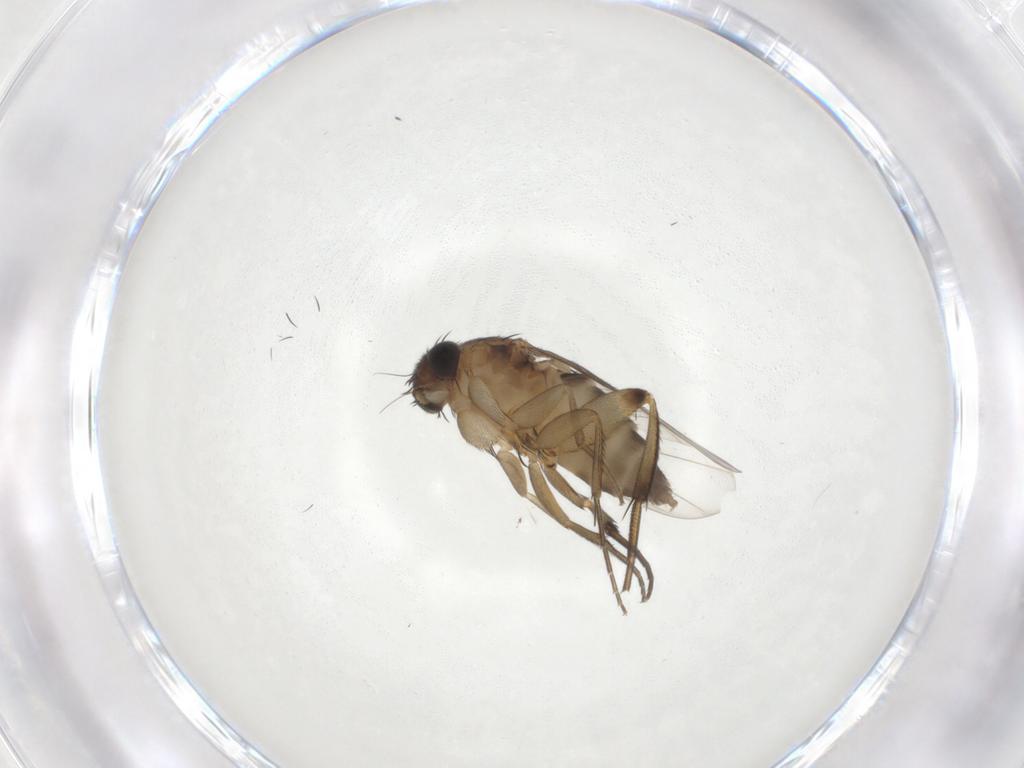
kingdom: Animalia
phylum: Arthropoda
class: Insecta
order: Diptera
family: Phoridae
